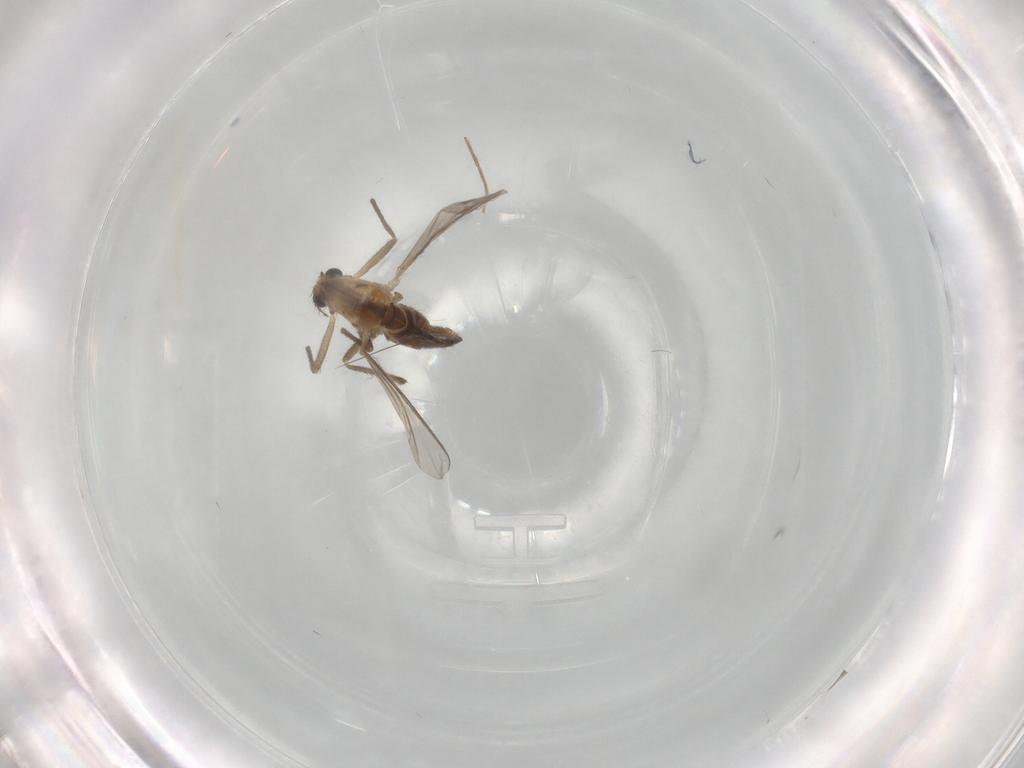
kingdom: Animalia
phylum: Arthropoda
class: Insecta
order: Diptera
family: Chironomidae
